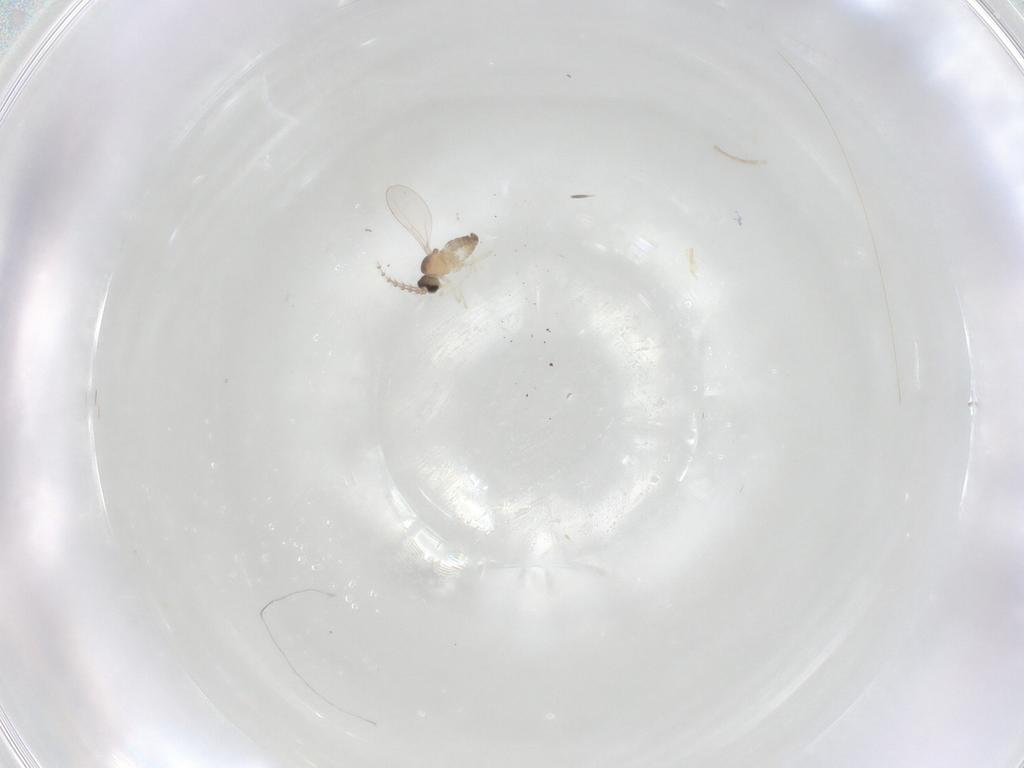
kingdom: Animalia
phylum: Arthropoda
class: Insecta
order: Diptera
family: Cecidomyiidae
